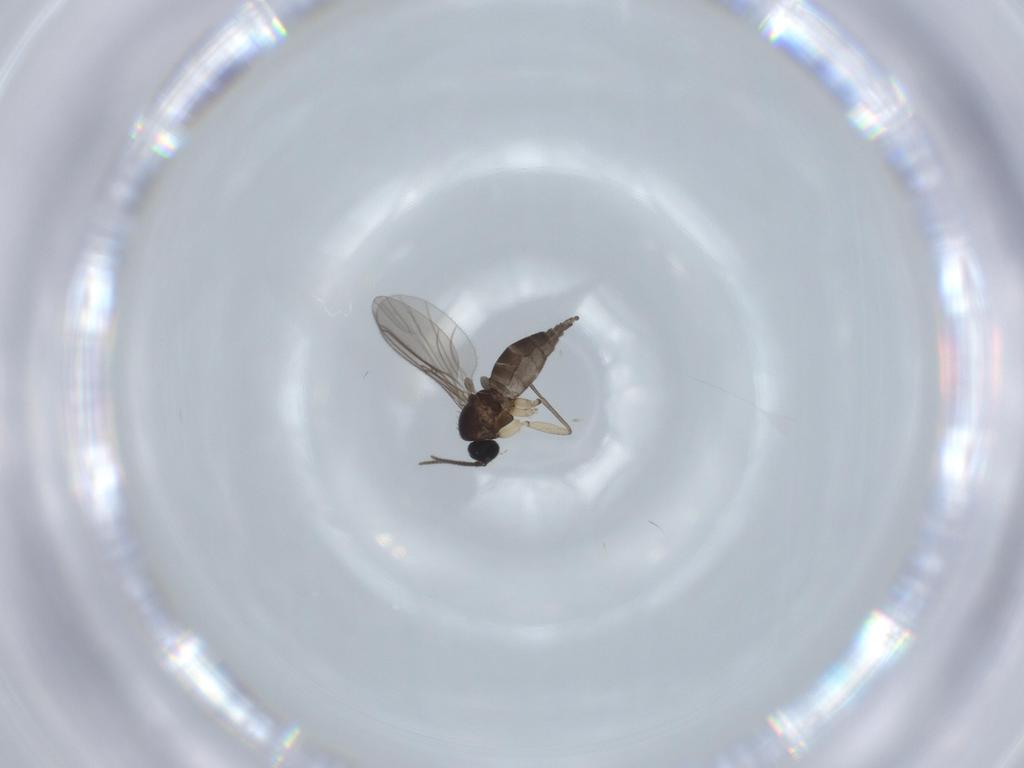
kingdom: Animalia
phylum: Arthropoda
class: Insecta
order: Diptera
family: Sciaridae
